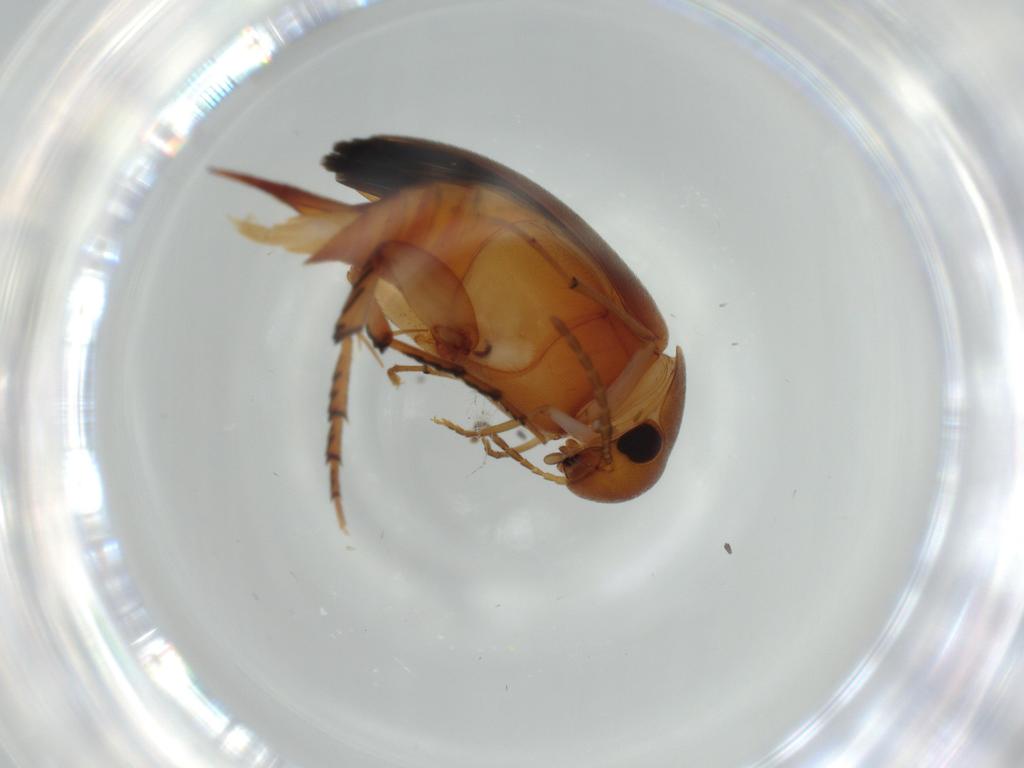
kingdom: Animalia
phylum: Arthropoda
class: Insecta
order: Coleoptera
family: Mordellidae
